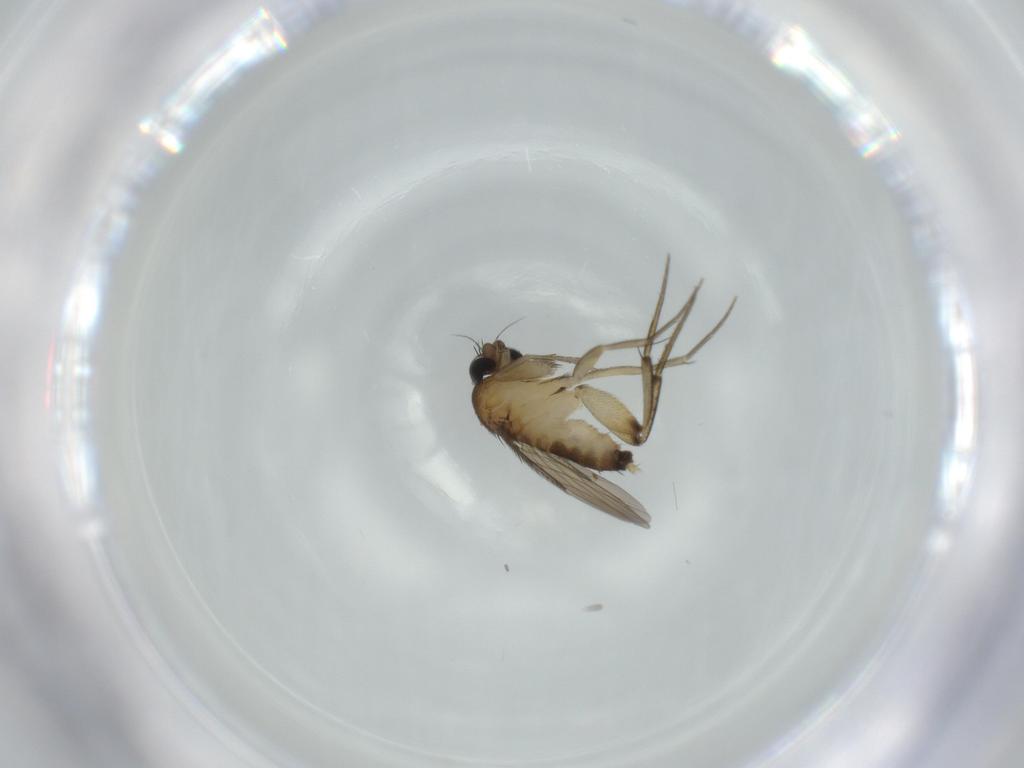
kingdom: Animalia
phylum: Arthropoda
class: Insecta
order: Diptera
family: Phoridae
